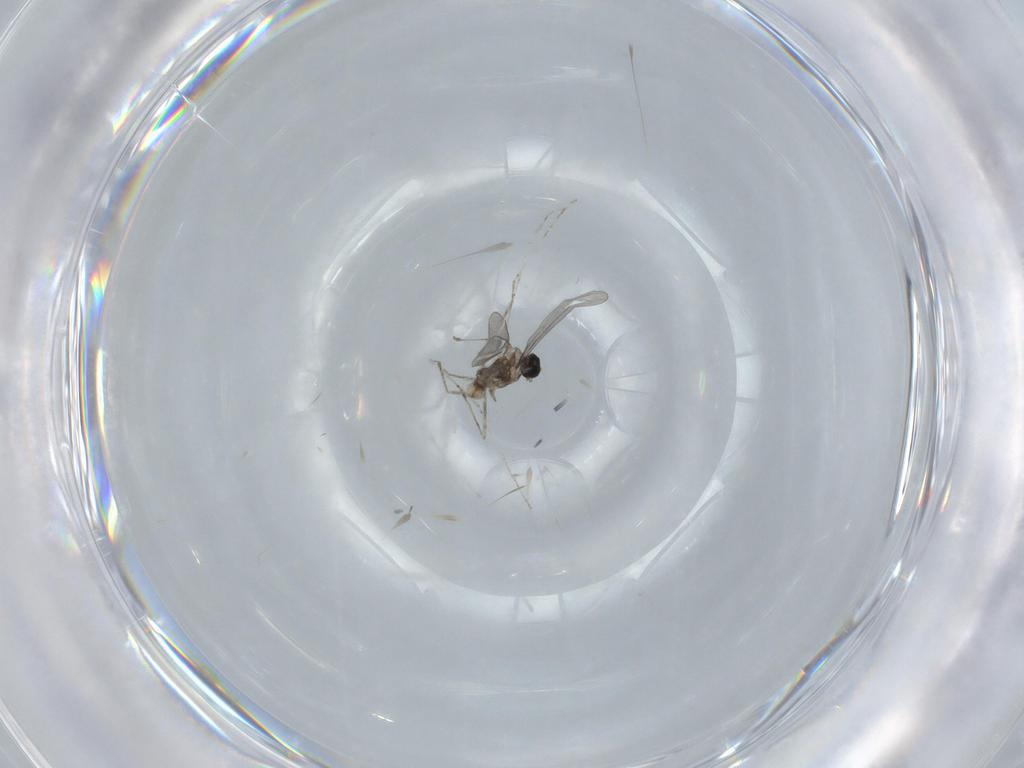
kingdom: Animalia
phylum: Arthropoda
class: Insecta
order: Diptera
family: Cecidomyiidae
